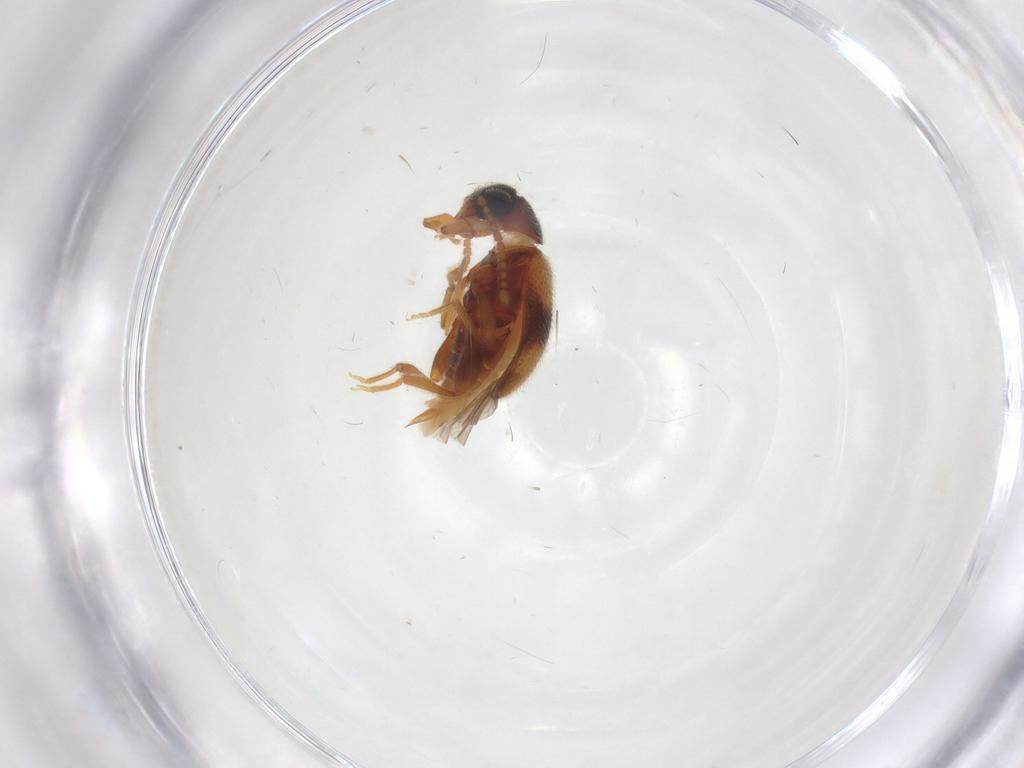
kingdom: Animalia
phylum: Arthropoda
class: Insecta
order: Coleoptera
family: Aderidae
